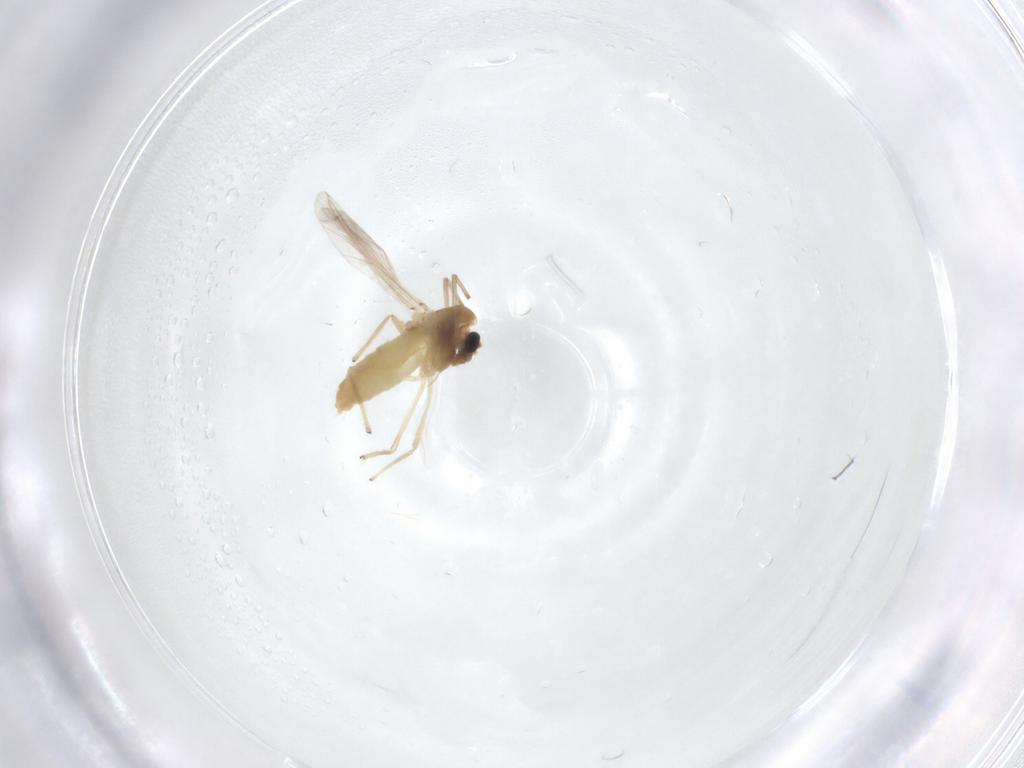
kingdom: Animalia
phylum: Arthropoda
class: Insecta
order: Diptera
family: Chironomidae
